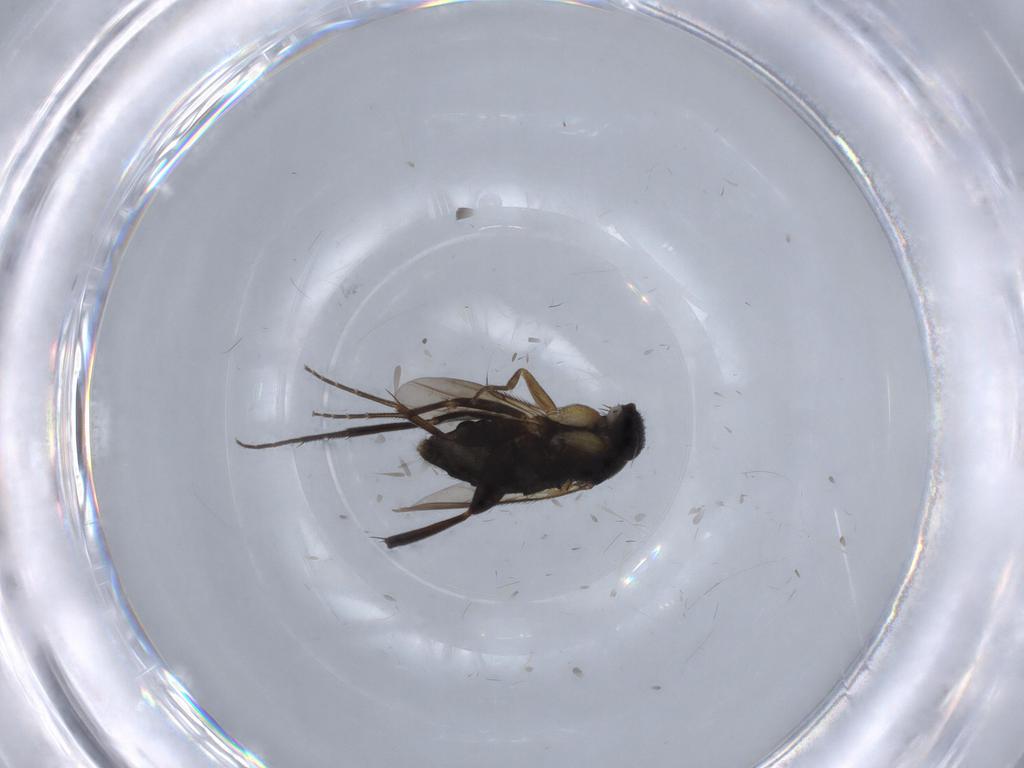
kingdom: Animalia
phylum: Arthropoda
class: Insecta
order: Diptera
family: Phoridae
